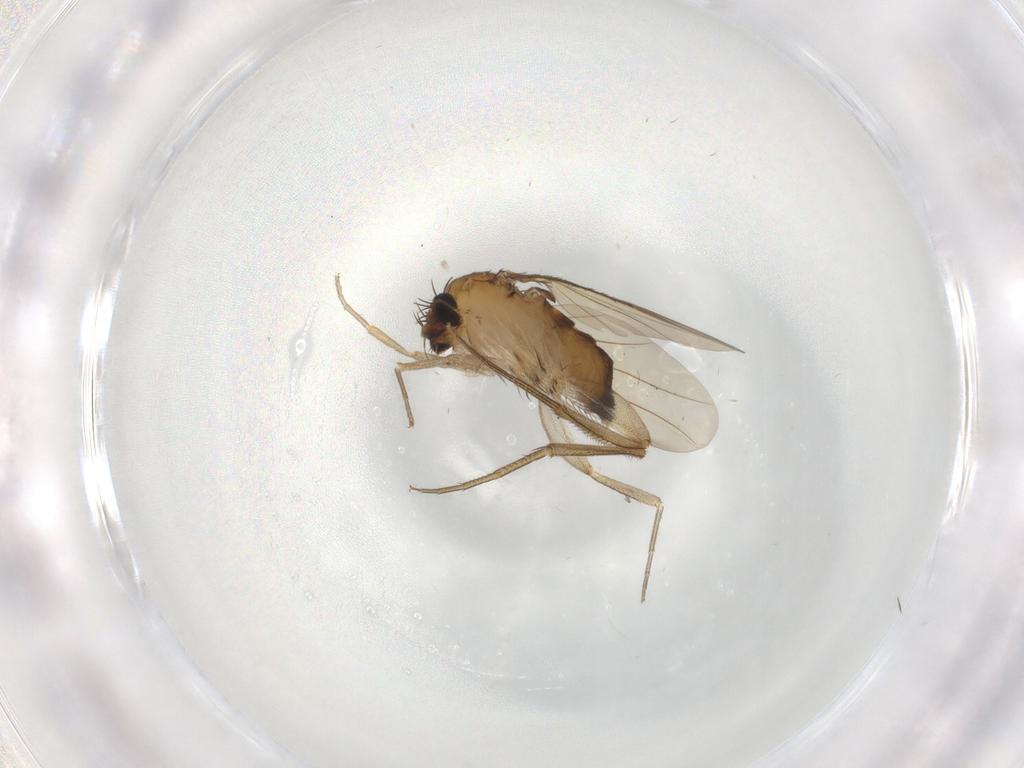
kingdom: Animalia
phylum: Arthropoda
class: Insecta
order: Diptera
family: Phoridae
